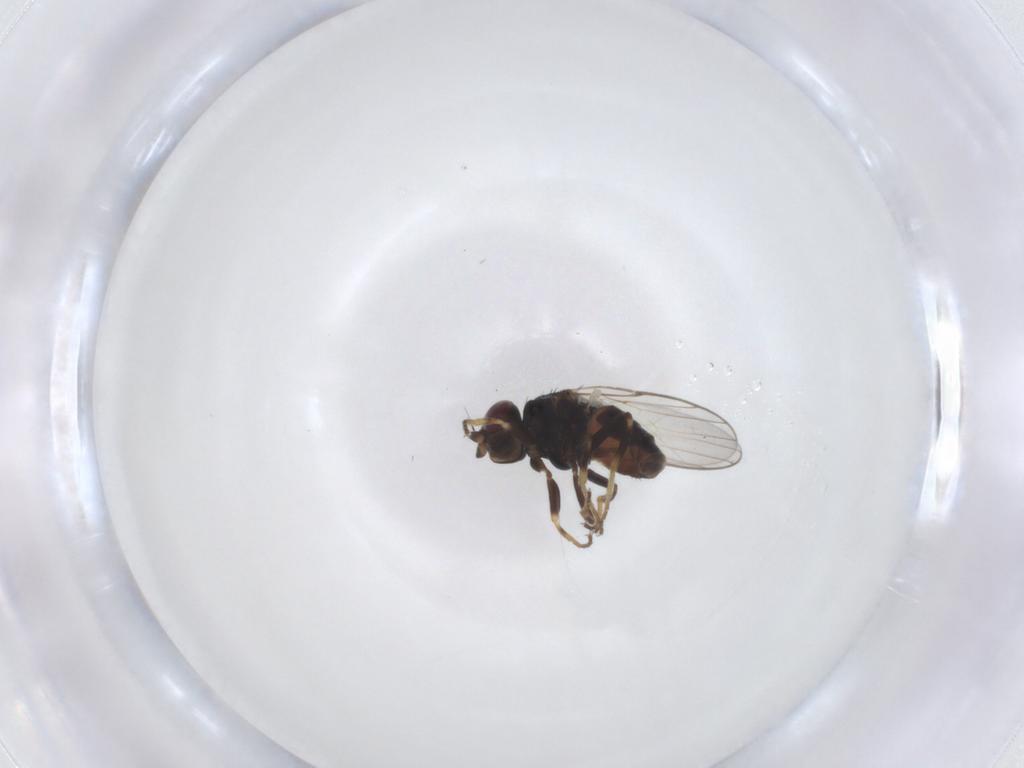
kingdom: Animalia
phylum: Arthropoda
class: Insecta
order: Diptera
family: Chloropidae
